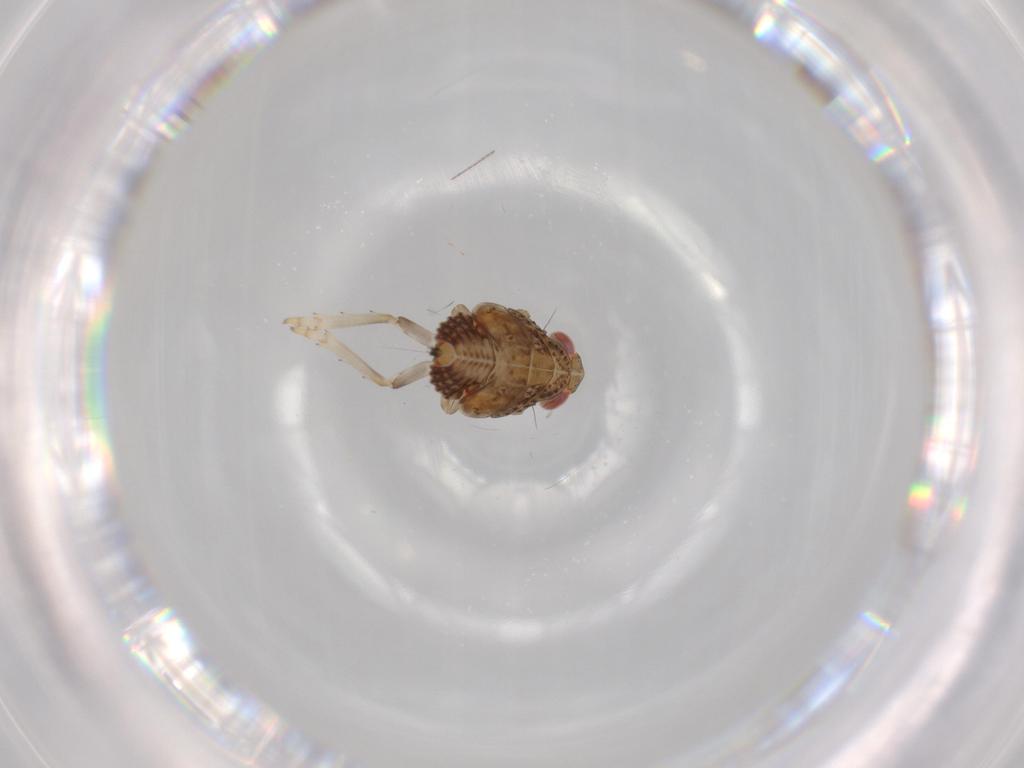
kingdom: Animalia
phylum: Arthropoda
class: Insecta
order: Hemiptera
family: Issidae
